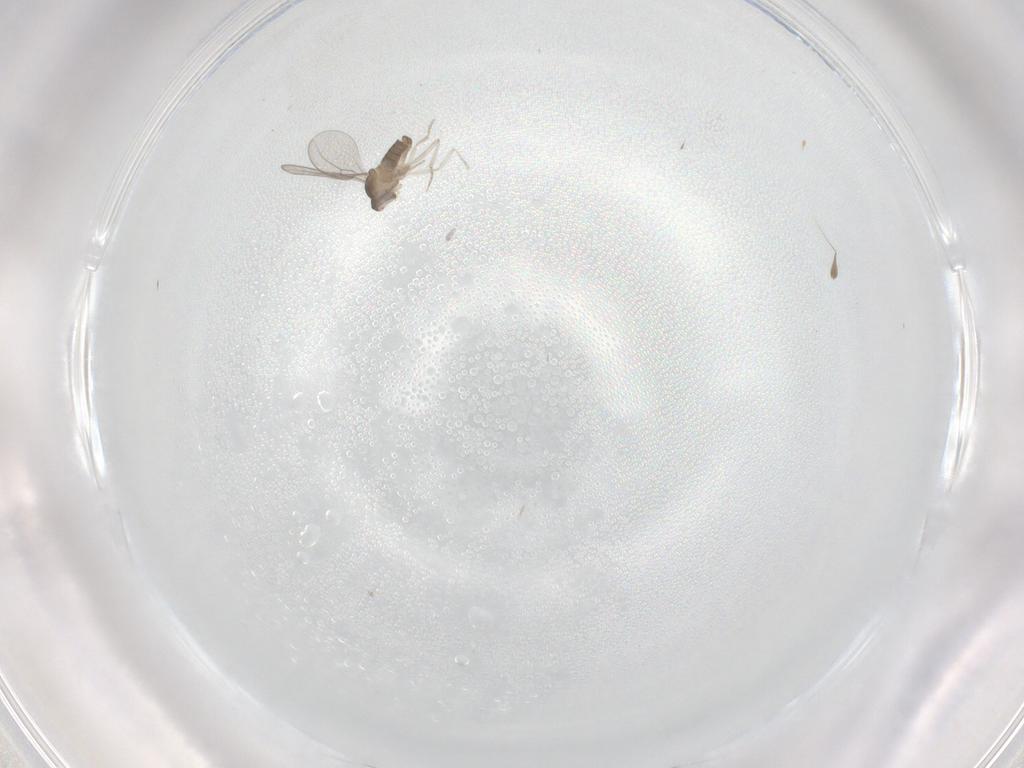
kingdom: Animalia
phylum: Arthropoda
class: Insecta
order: Diptera
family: Cecidomyiidae
